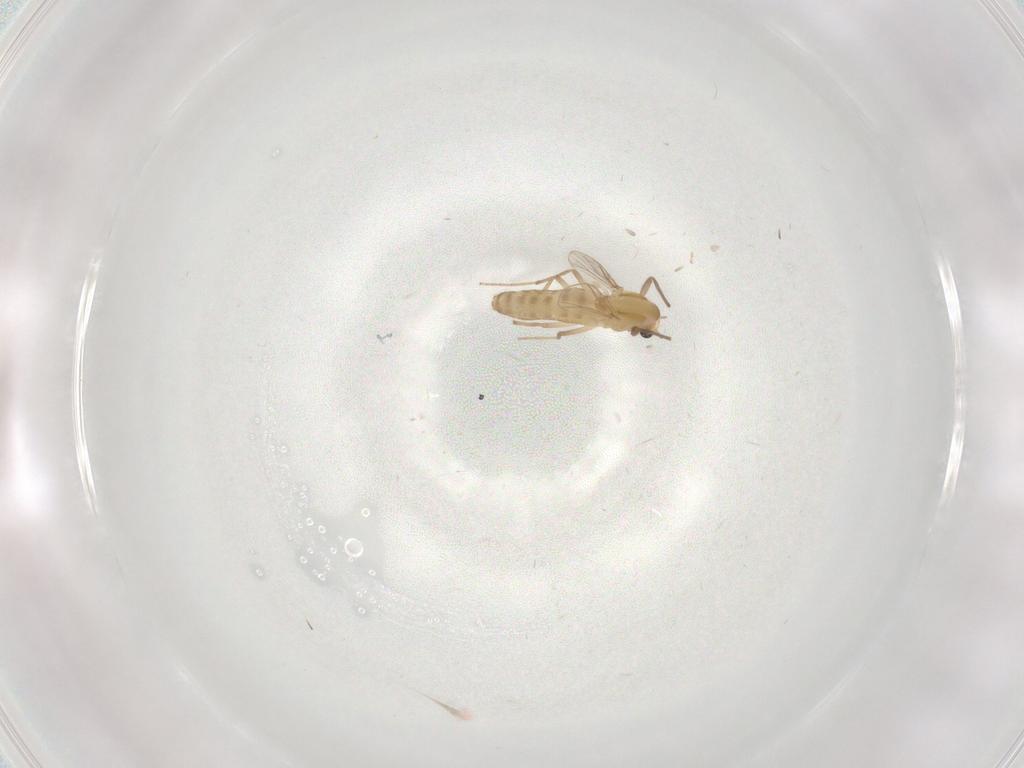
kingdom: Animalia
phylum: Arthropoda
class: Insecta
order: Diptera
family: Chironomidae
